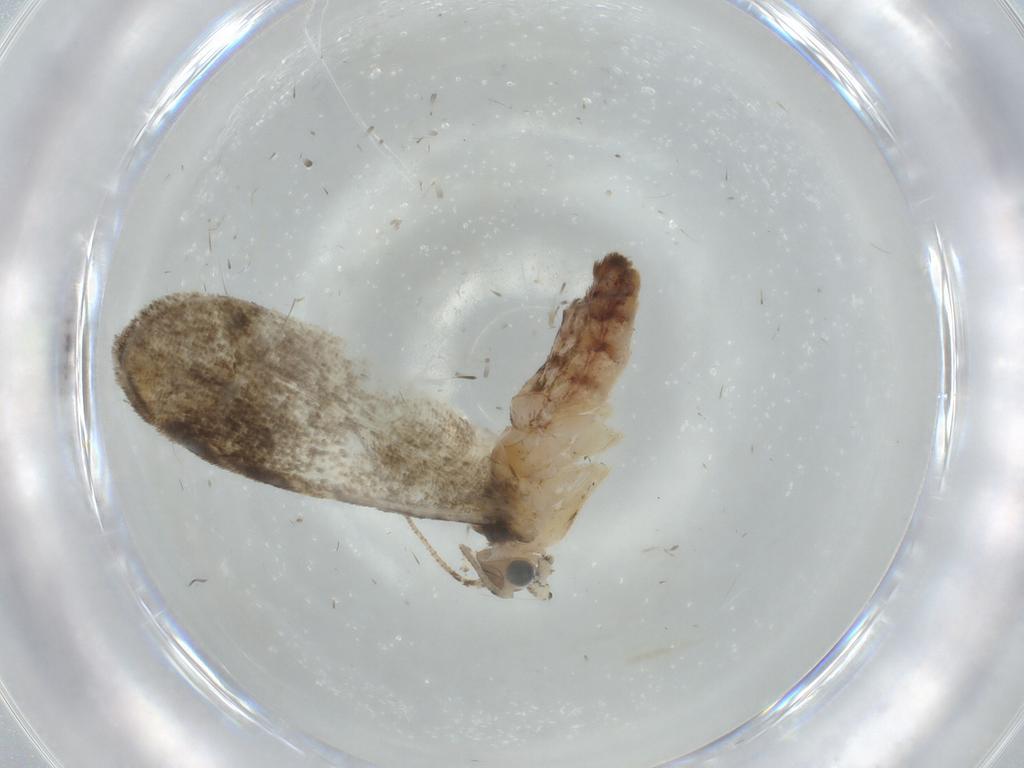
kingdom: Animalia
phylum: Arthropoda
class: Insecta
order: Lepidoptera
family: Tineidae
